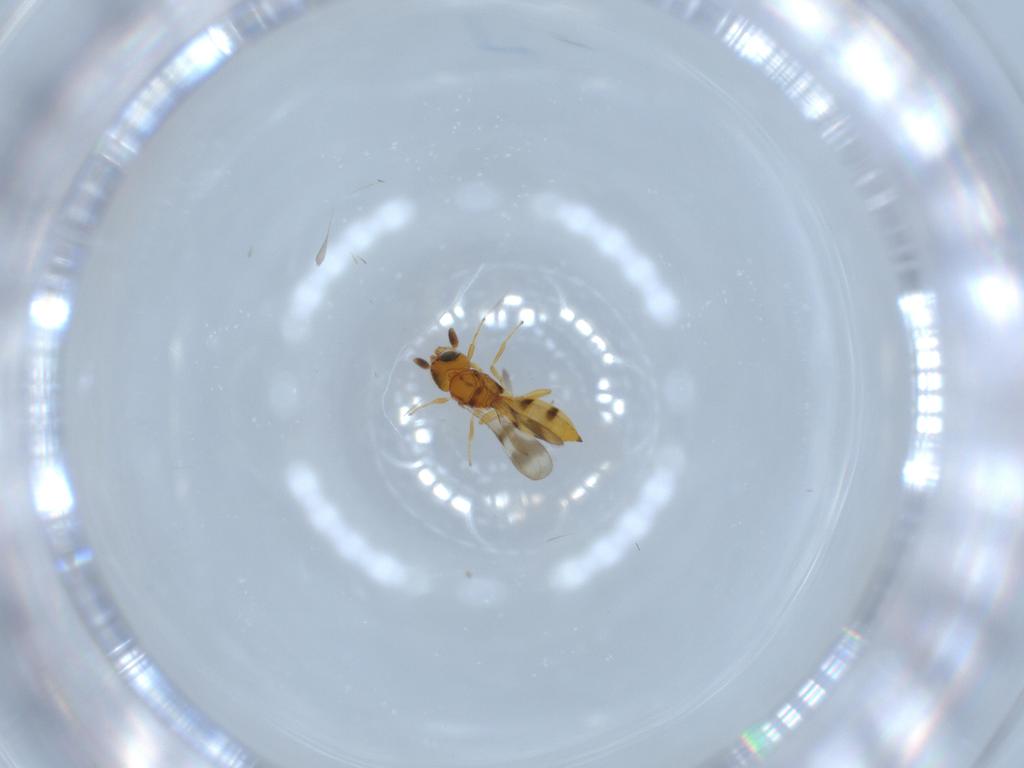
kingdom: Animalia
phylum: Arthropoda
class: Insecta
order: Hymenoptera
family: Scelionidae
